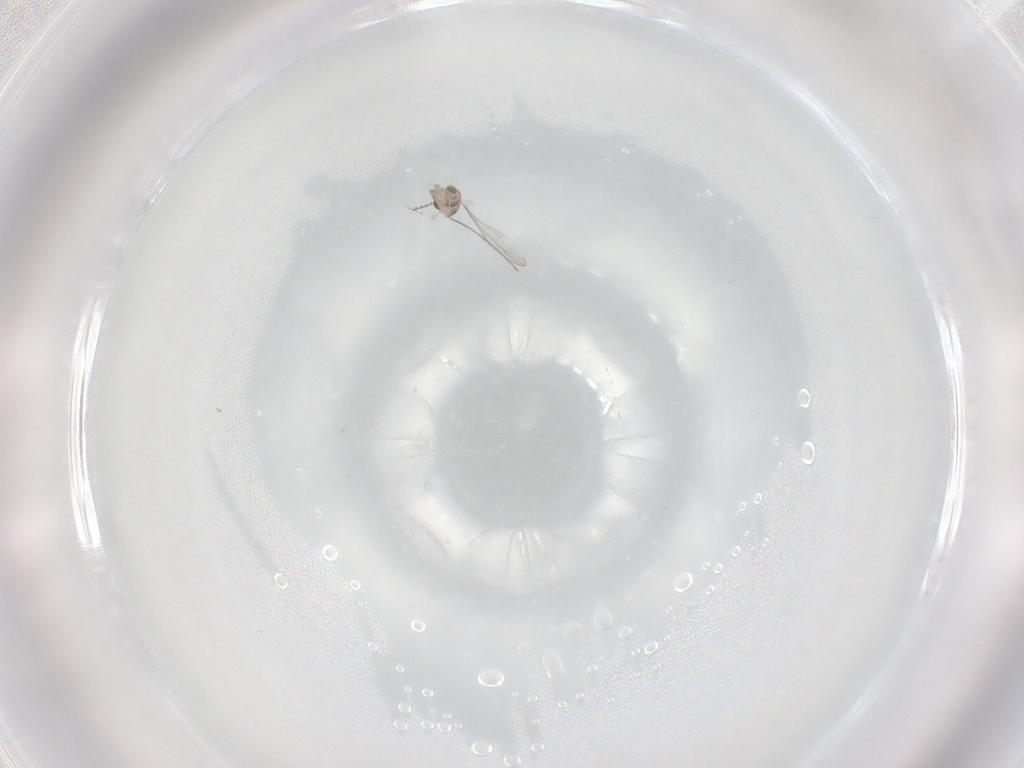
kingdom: Animalia
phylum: Arthropoda
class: Insecta
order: Diptera
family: Cecidomyiidae
